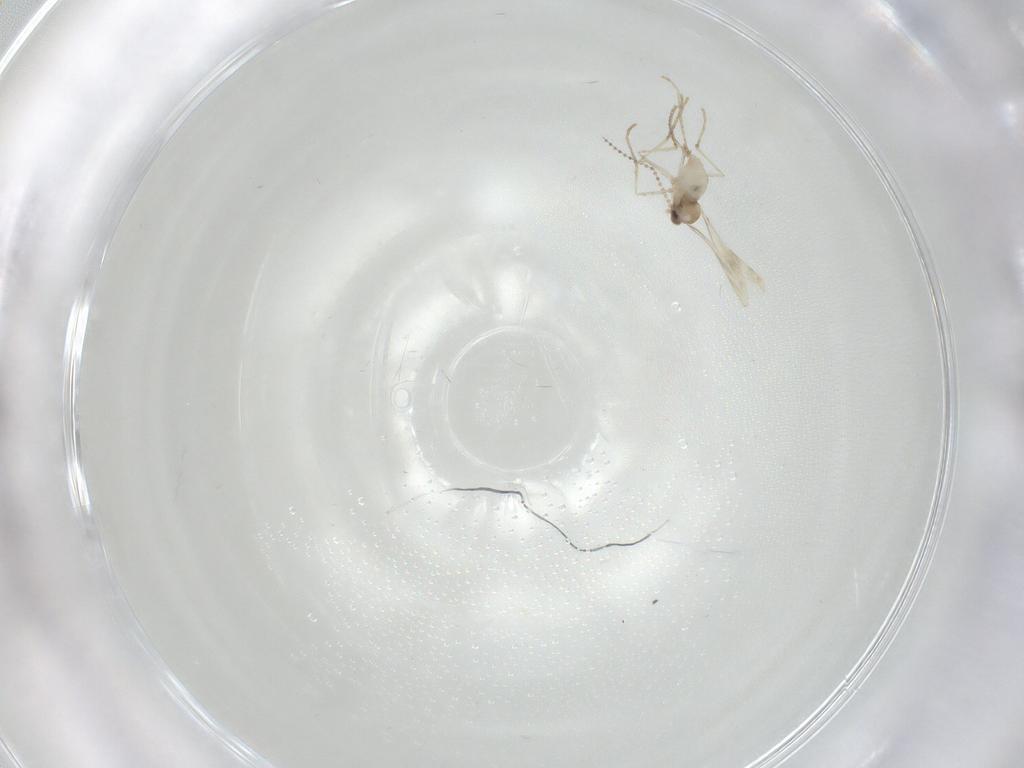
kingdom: Animalia
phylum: Arthropoda
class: Insecta
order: Diptera
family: Cecidomyiidae
